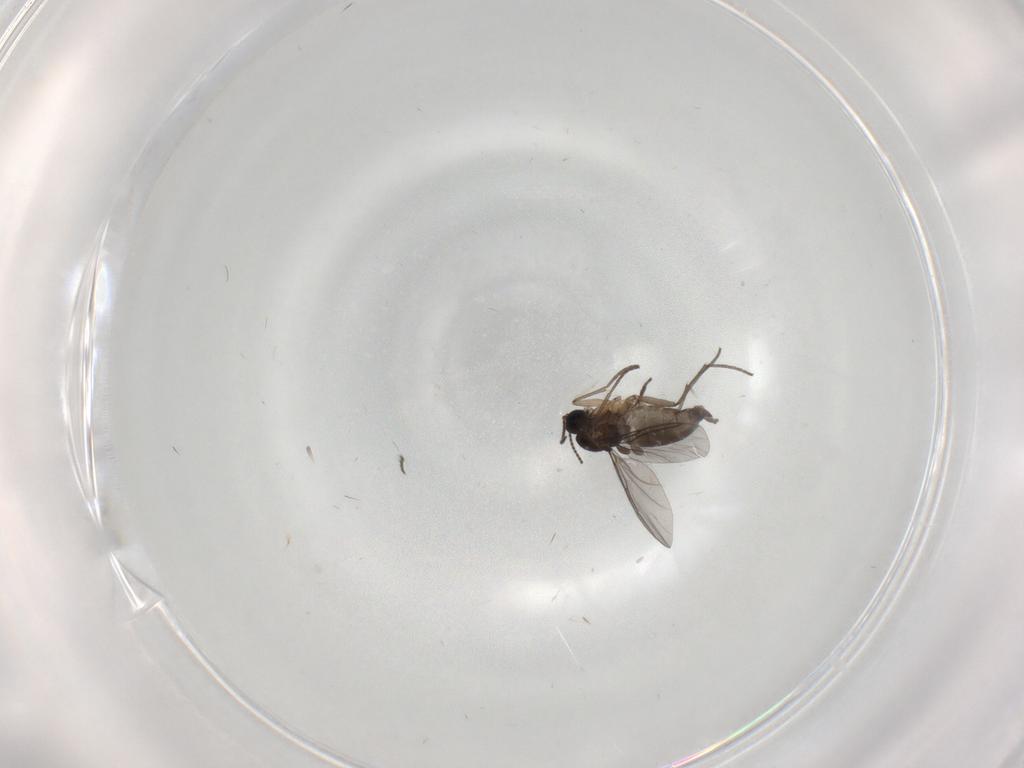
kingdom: Animalia
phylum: Arthropoda
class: Insecta
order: Diptera
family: Sciaridae
